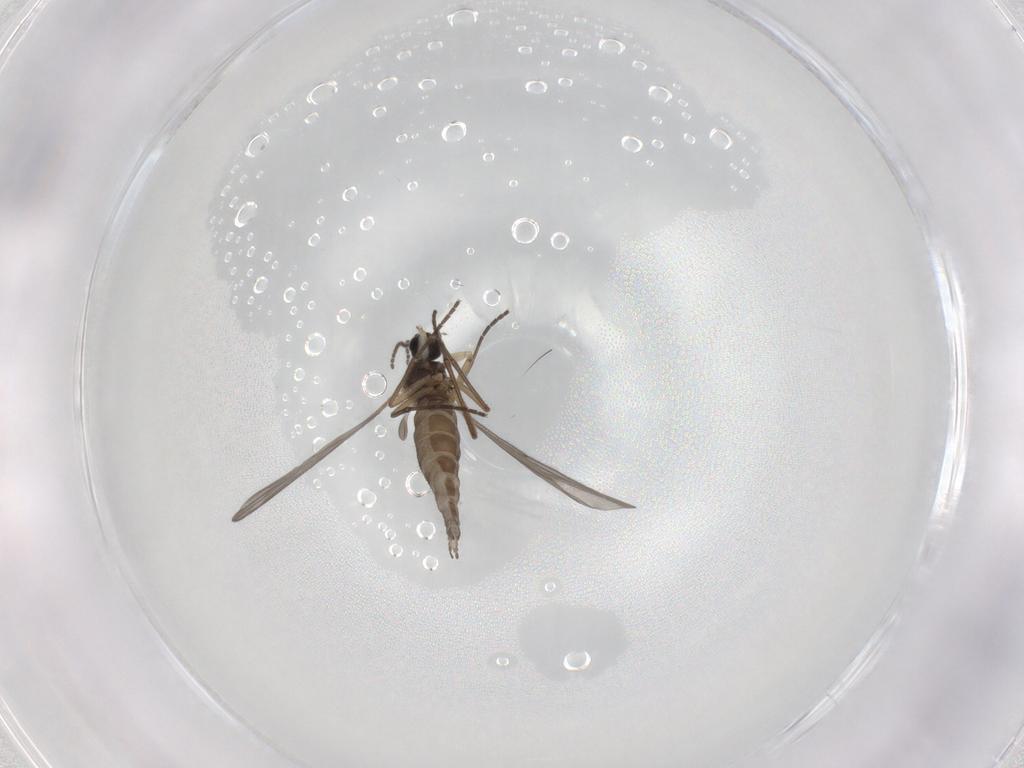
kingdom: Animalia
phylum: Arthropoda
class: Insecta
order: Diptera
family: Sciaridae
